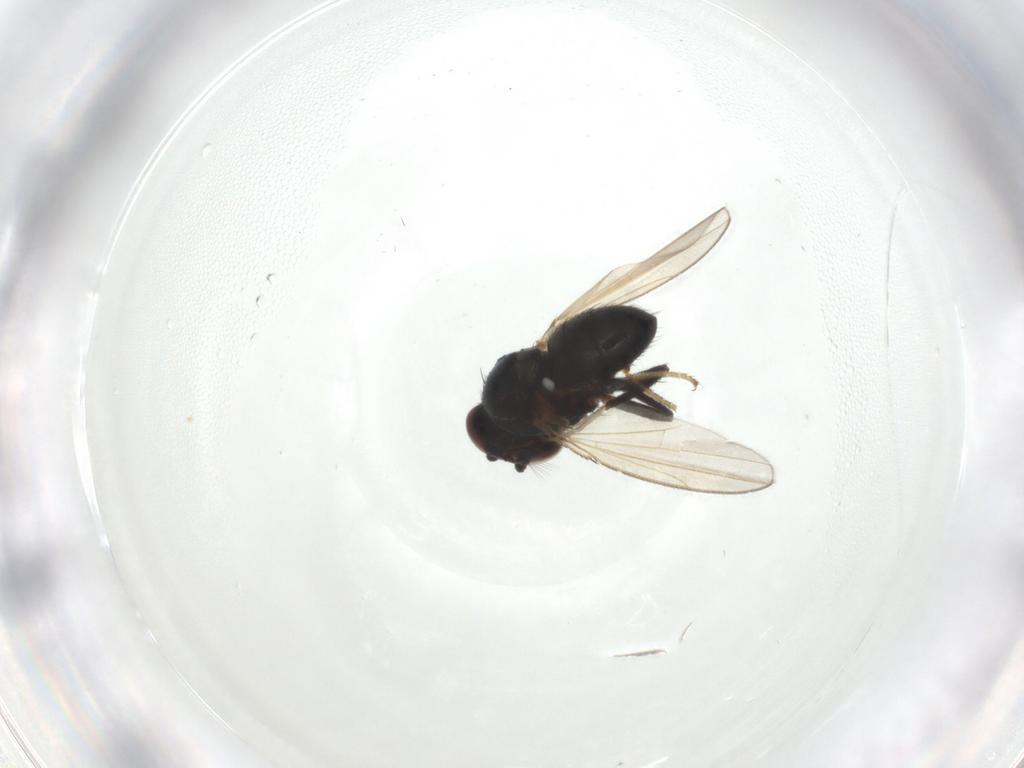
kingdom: Animalia
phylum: Arthropoda
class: Insecta
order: Diptera
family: Ephydridae
